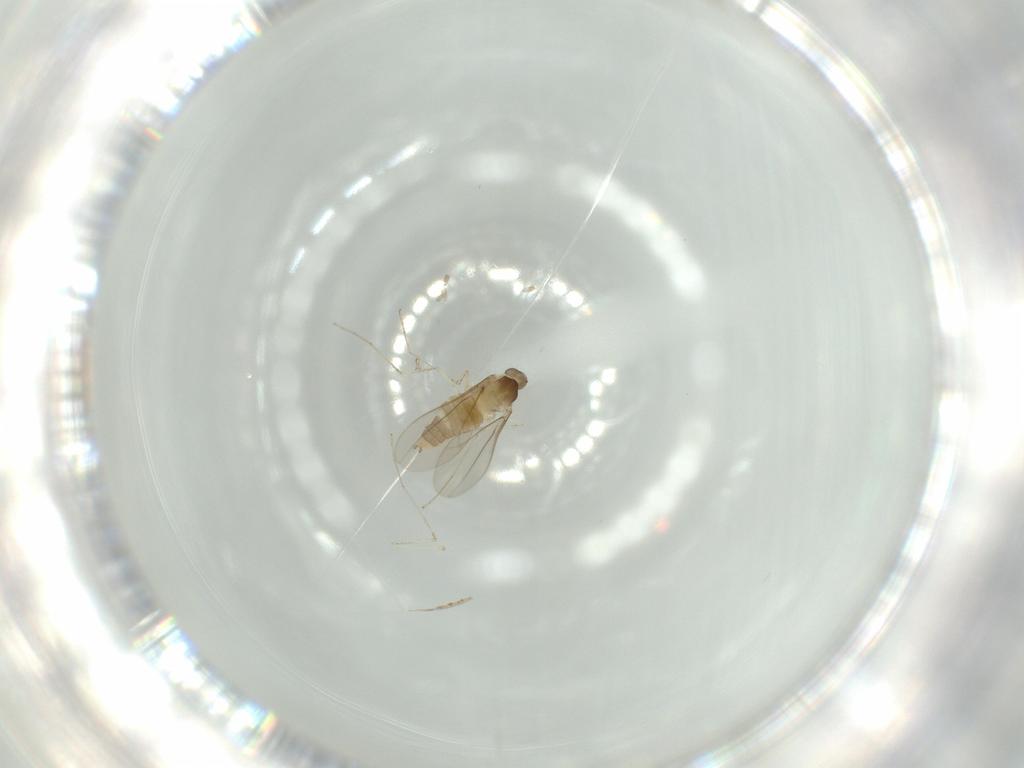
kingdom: Animalia
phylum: Arthropoda
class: Insecta
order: Diptera
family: Cecidomyiidae
